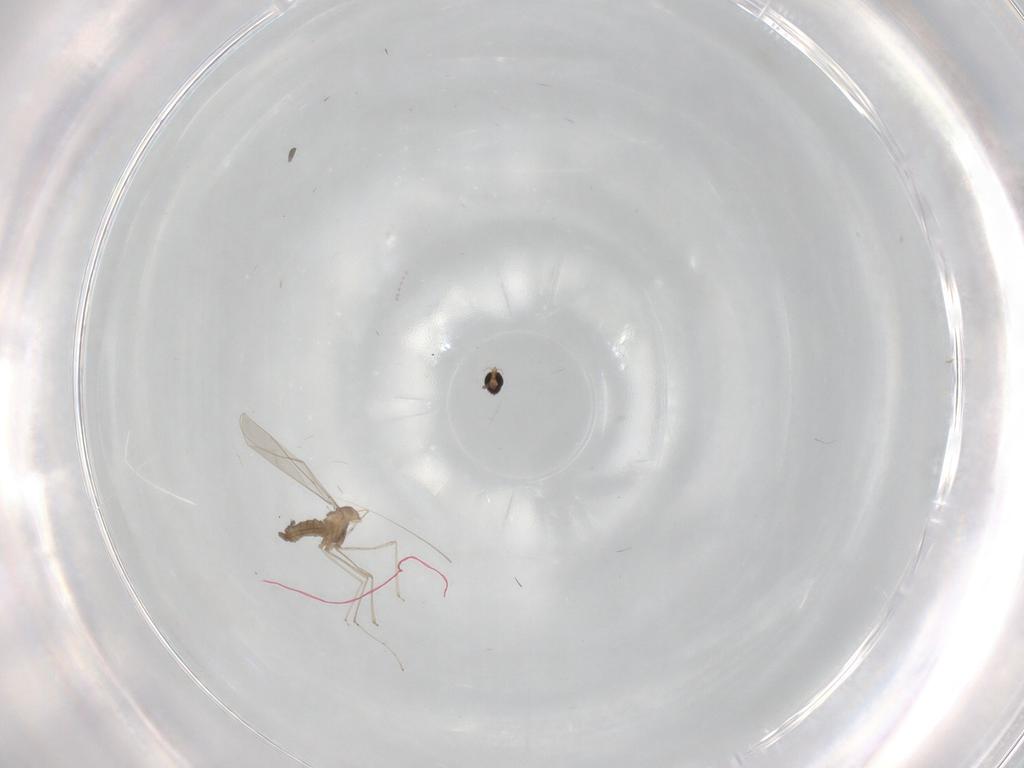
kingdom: Animalia
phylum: Arthropoda
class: Insecta
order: Diptera
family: Cecidomyiidae
